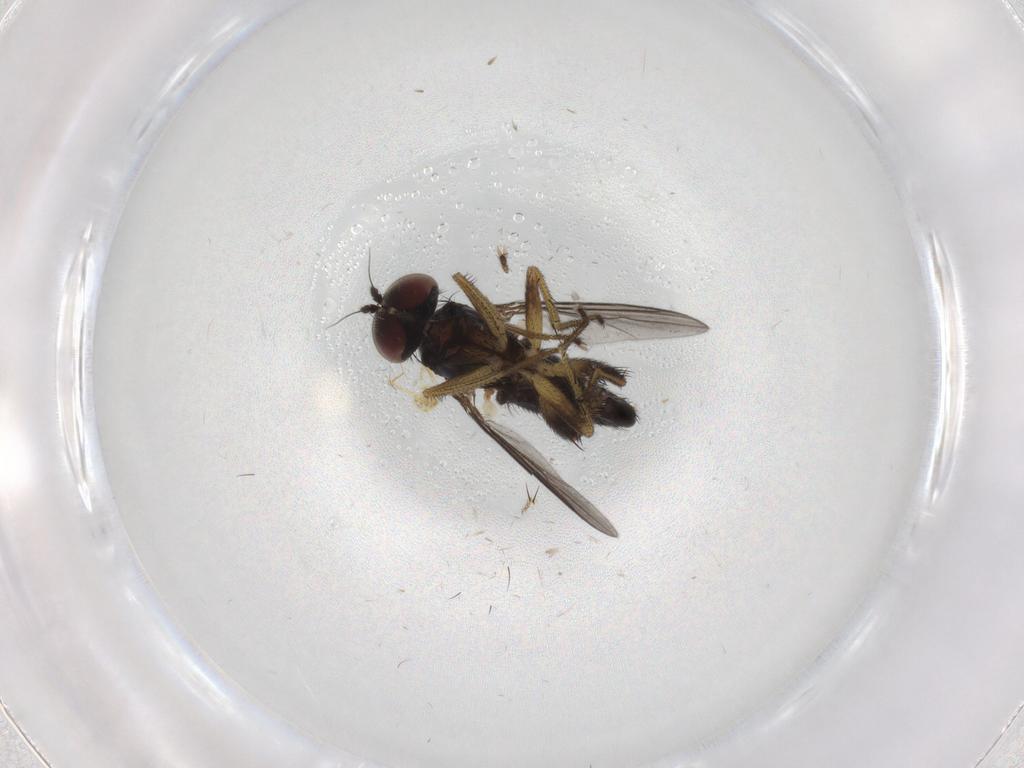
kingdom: Animalia
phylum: Arthropoda
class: Insecta
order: Diptera
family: Dolichopodidae
